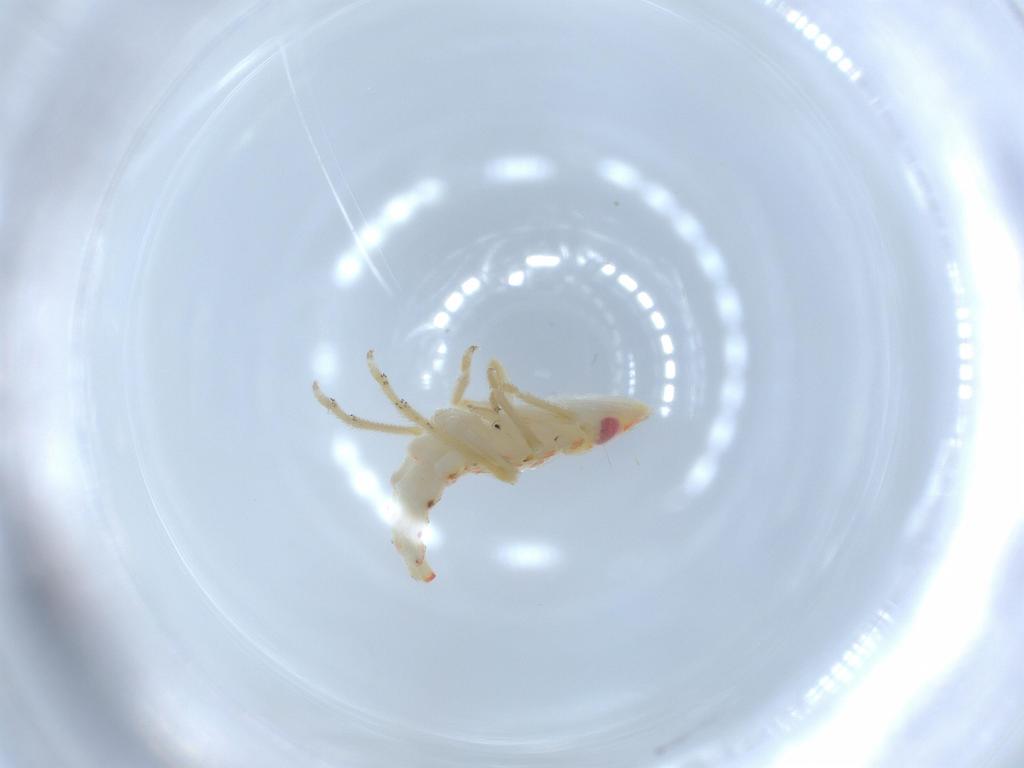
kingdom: Animalia
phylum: Arthropoda
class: Insecta
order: Hemiptera
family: Tropiduchidae
